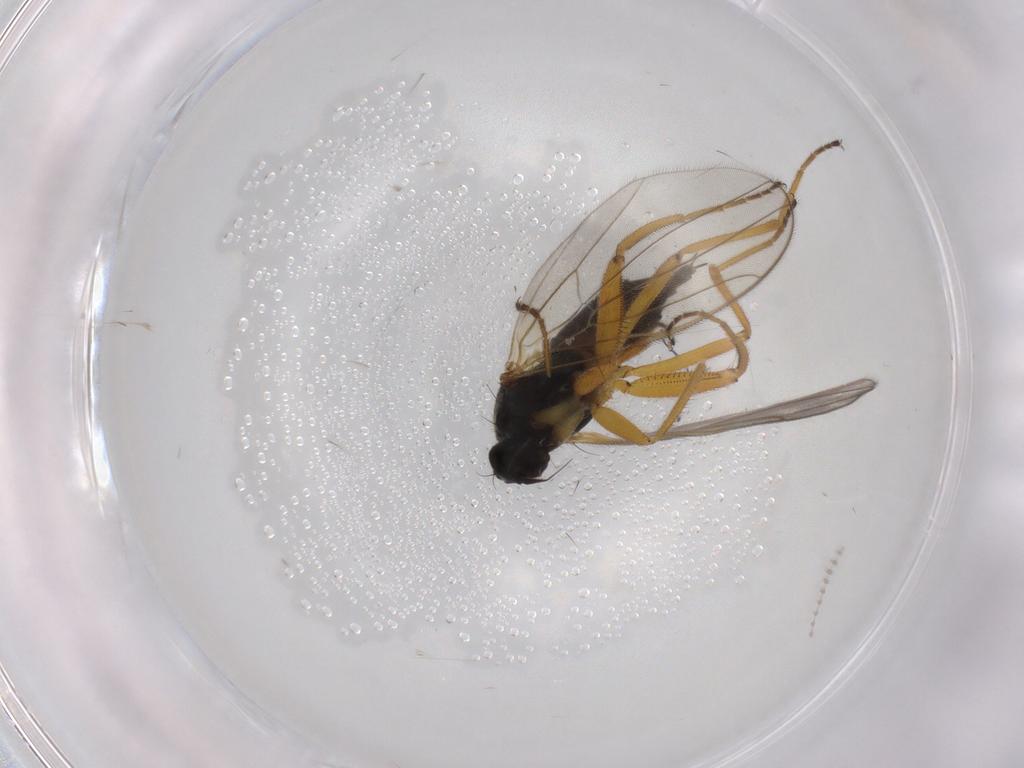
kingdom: Animalia
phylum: Arthropoda
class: Insecta
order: Diptera
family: Hybotidae
